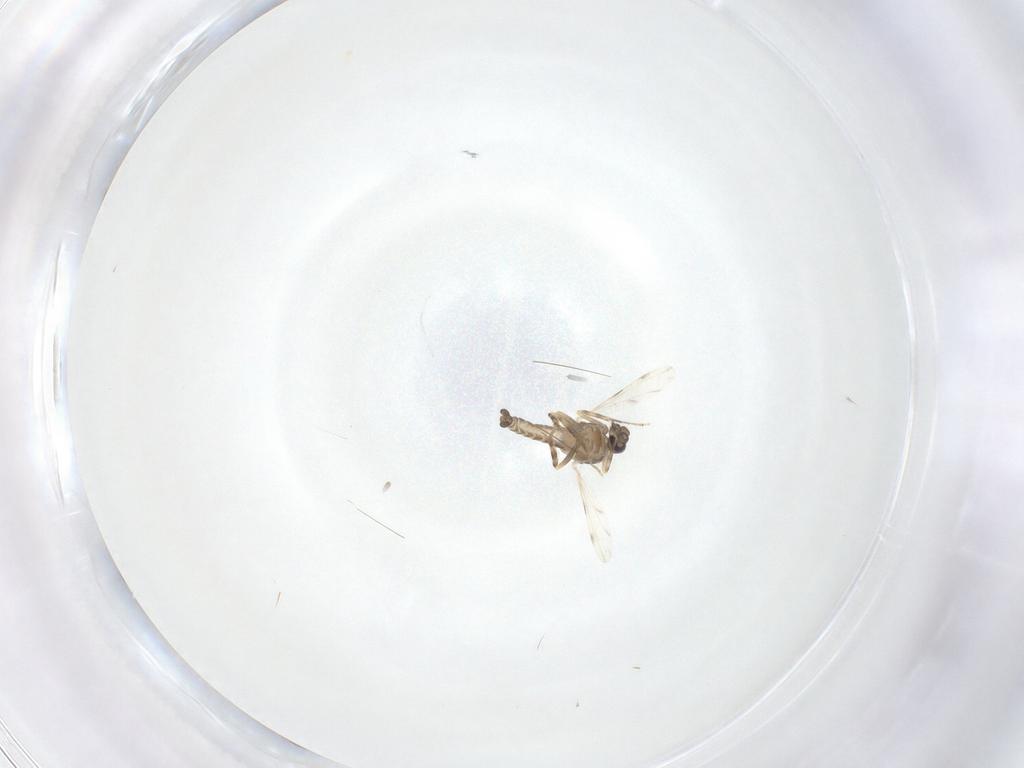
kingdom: Animalia
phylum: Arthropoda
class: Insecta
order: Diptera
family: Ceratopogonidae
